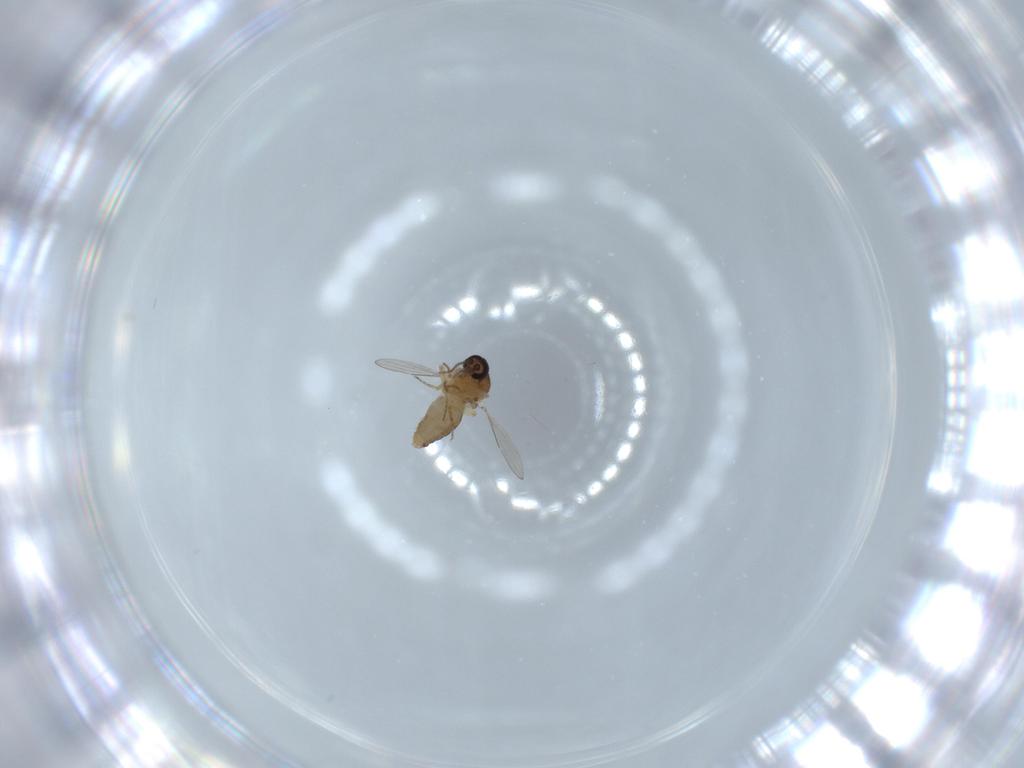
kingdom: Animalia
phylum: Arthropoda
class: Insecta
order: Diptera
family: Ceratopogonidae
